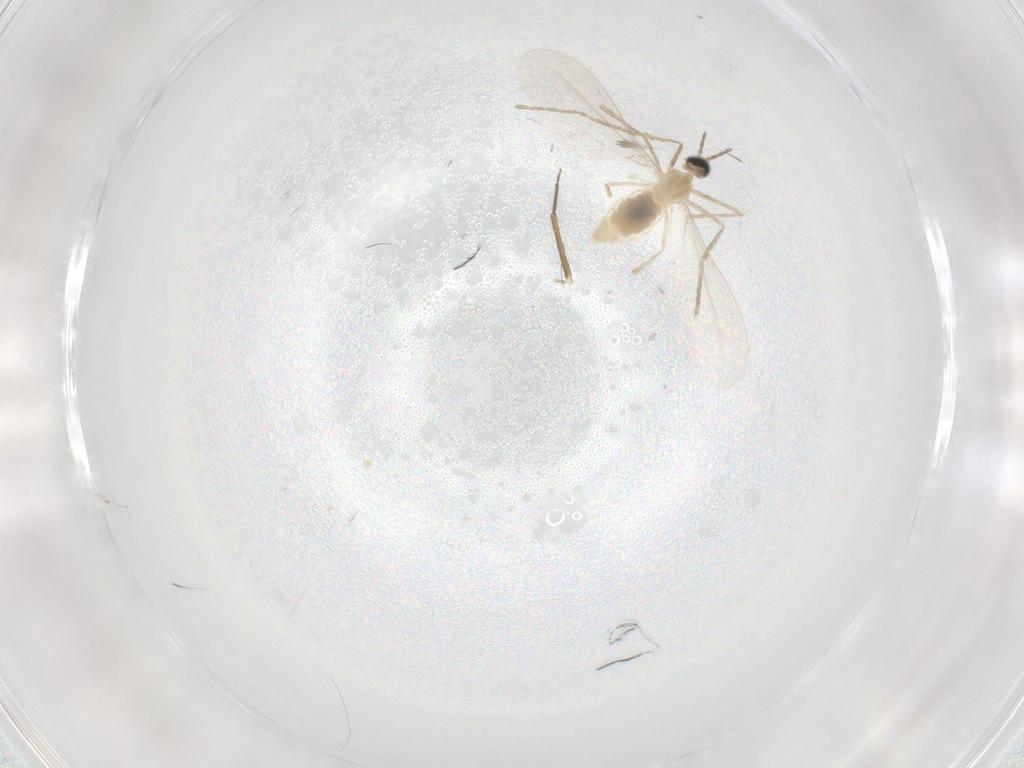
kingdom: Animalia
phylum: Arthropoda
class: Insecta
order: Diptera
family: Cecidomyiidae
